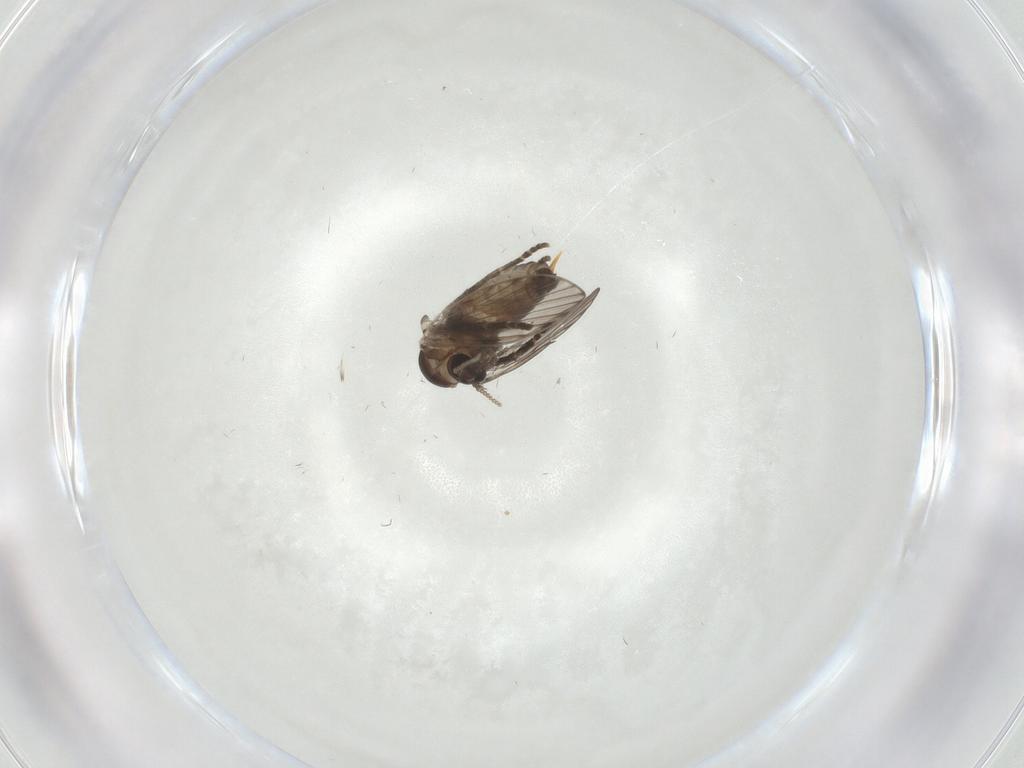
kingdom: Animalia
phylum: Arthropoda
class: Insecta
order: Diptera
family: Psychodidae
